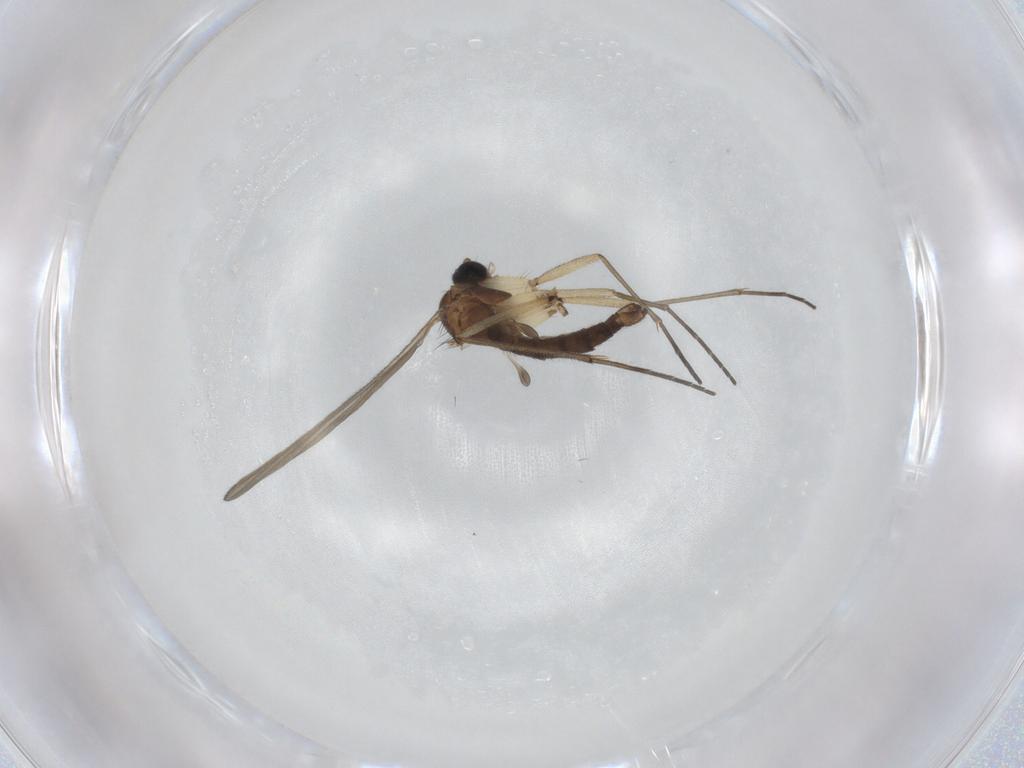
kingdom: Animalia
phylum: Arthropoda
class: Insecta
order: Diptera
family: Sciaridae
